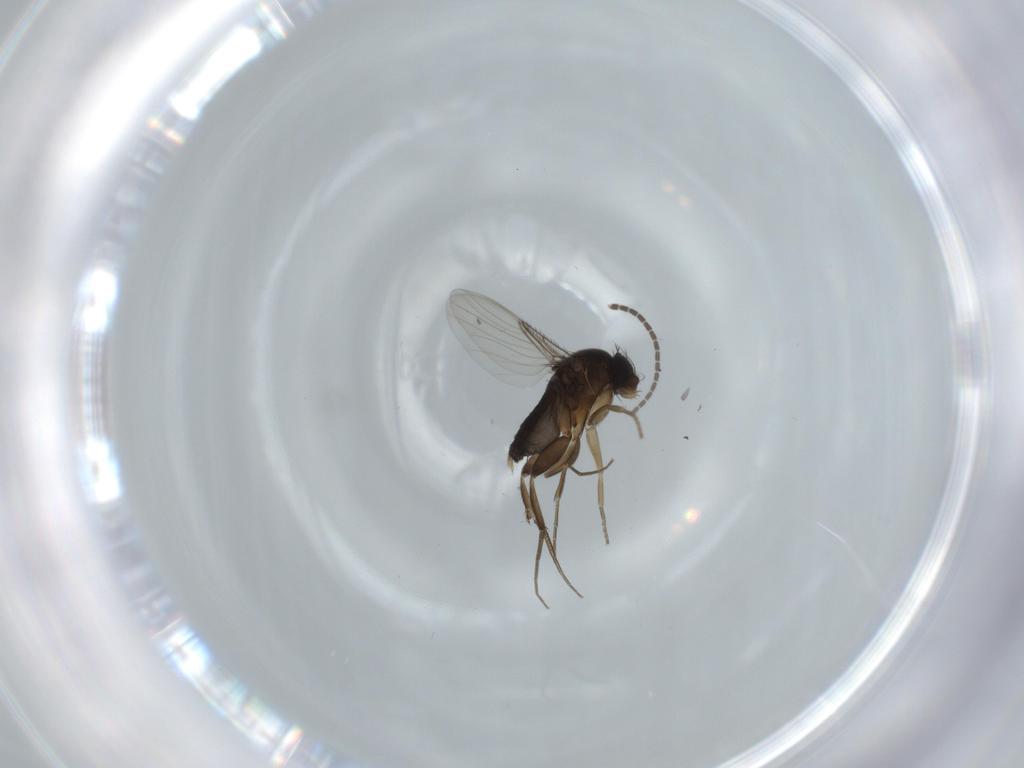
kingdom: Animalia
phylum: Arthropoda
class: Insecta
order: Diptera
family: Phoridae
